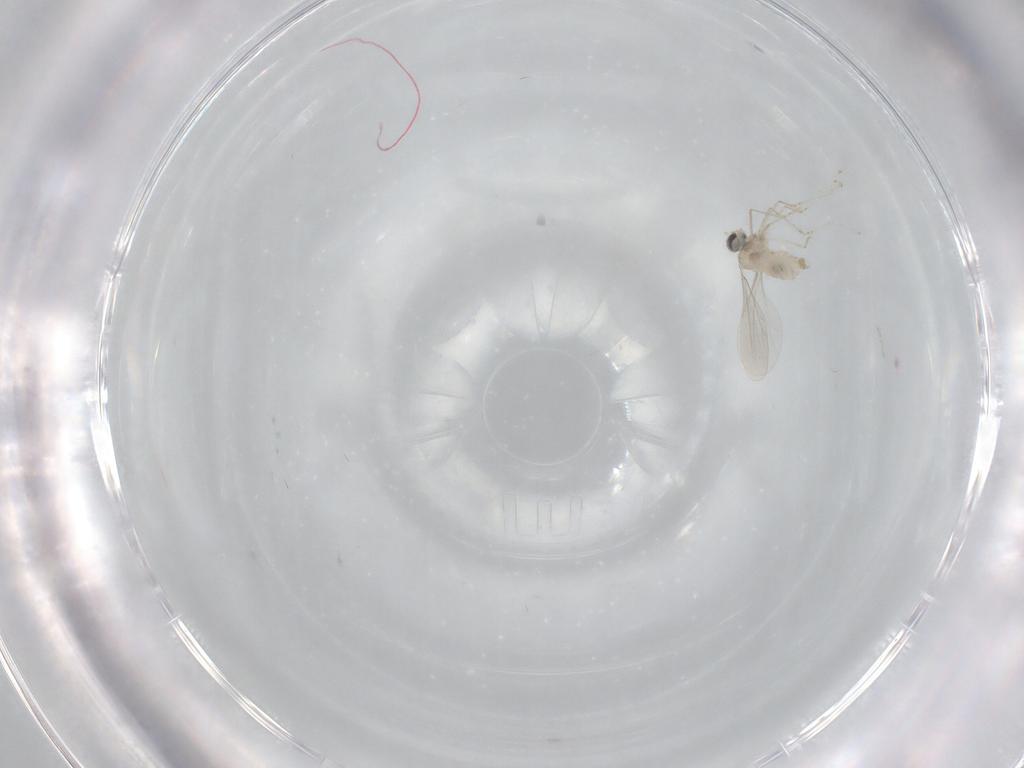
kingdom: Animalia
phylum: Arthropoda
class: Insecta
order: Diptera
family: Cecidomyiidae
